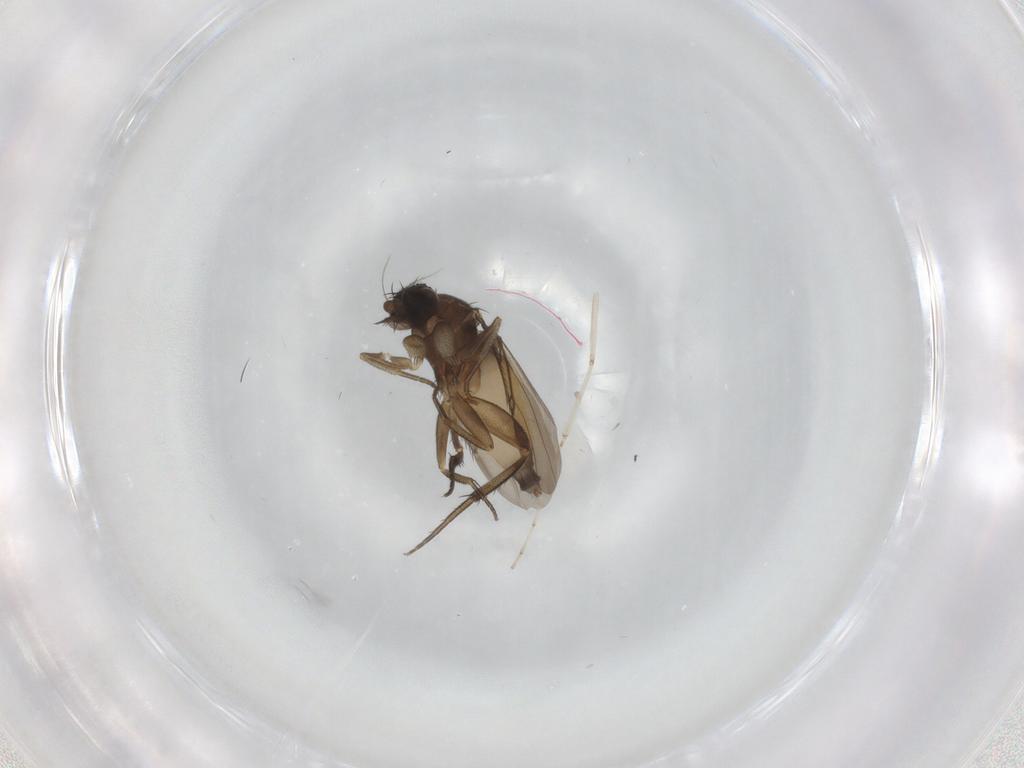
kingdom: Animalia
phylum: Arthropoda
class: Insecta
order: Diptera
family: Phoridae
